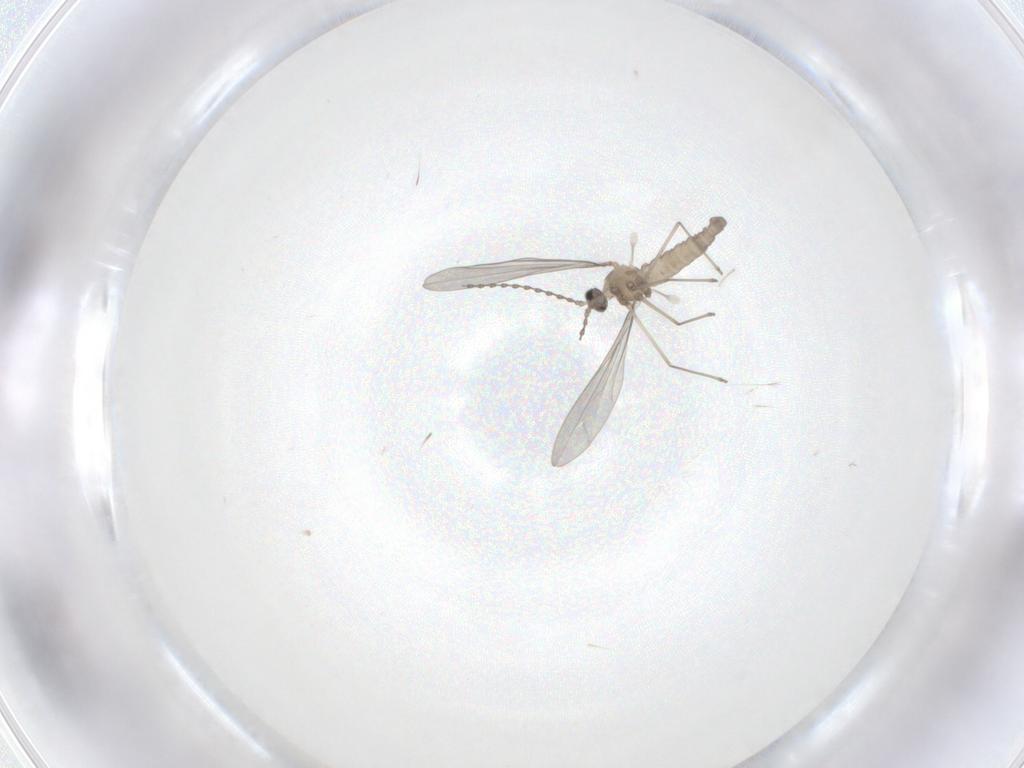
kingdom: Animalia
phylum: Arthropoda
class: Insecta
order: Diptera
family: Cecidomyiidae
